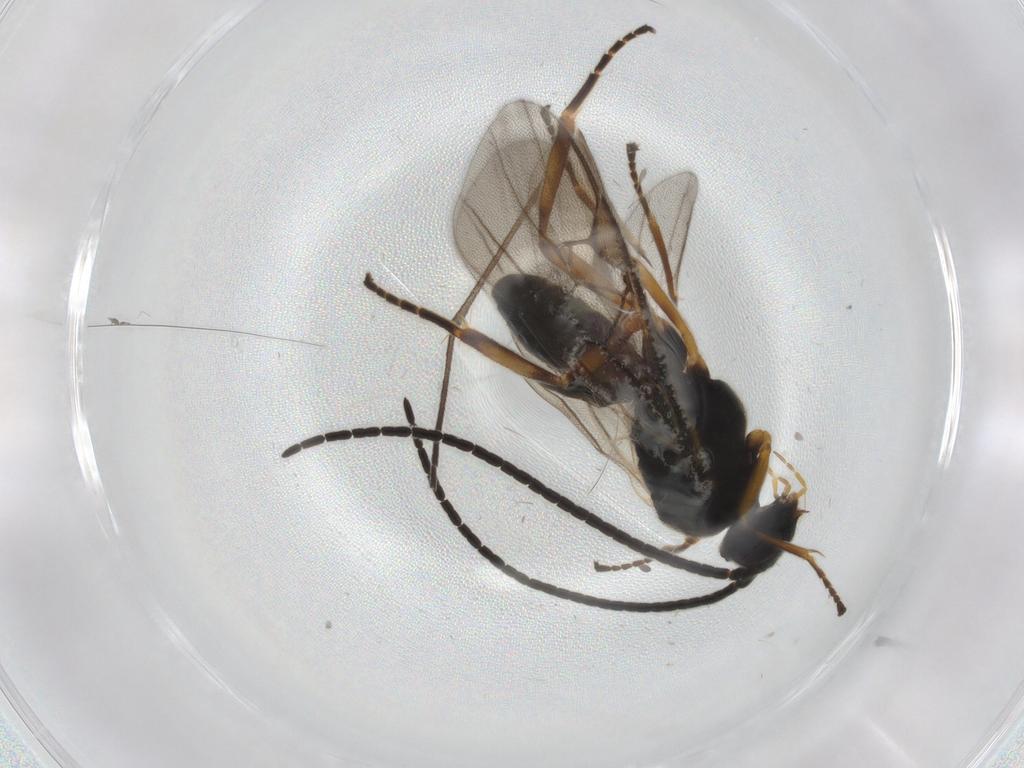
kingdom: Animalia
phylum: Arthropoda
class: Insecta
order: Hymenoptera
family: Braconidae
